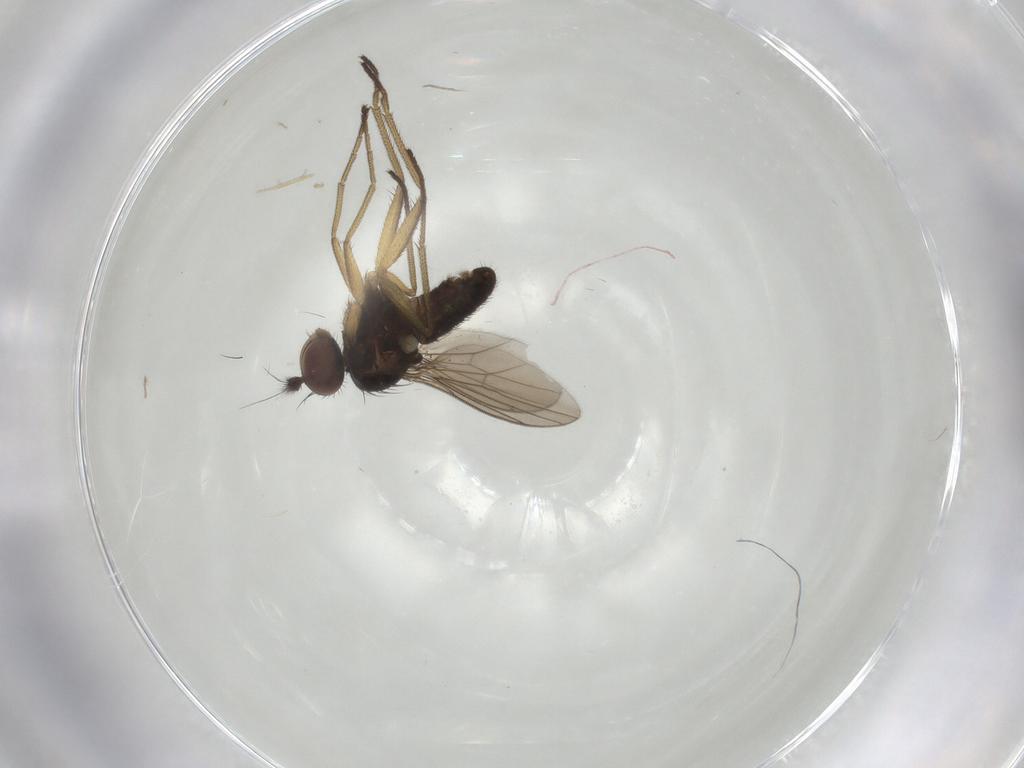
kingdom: Animalia
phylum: Arthropoda
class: Insecta
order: Diptera
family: Dolichopodidae
